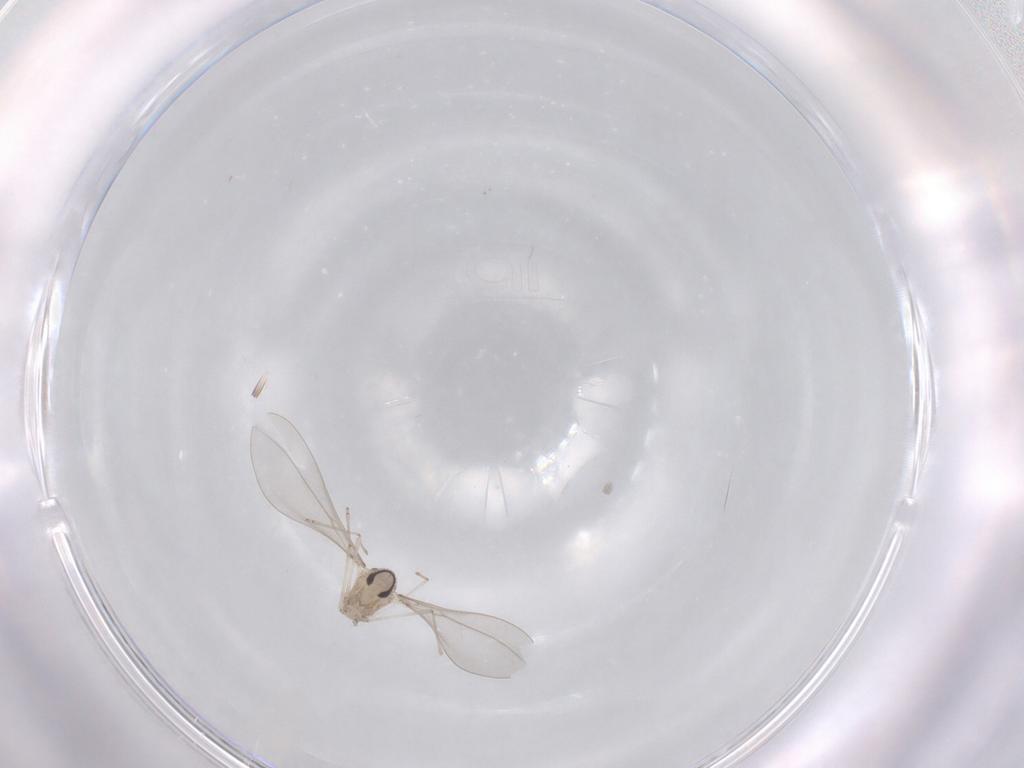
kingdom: Animalia
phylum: Arthropoda
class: Insecta
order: Diptera
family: Cecidomyiidae
